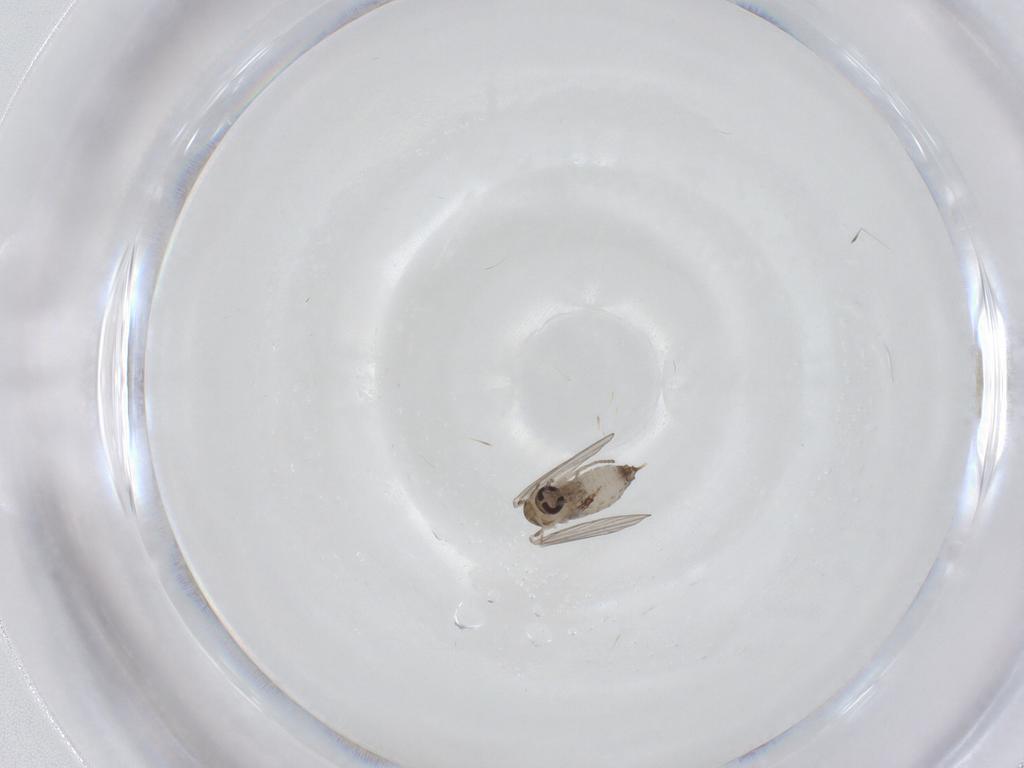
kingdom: Animalia
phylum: Arthropoda
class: Insecta
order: Diptera
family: Psychodidae
